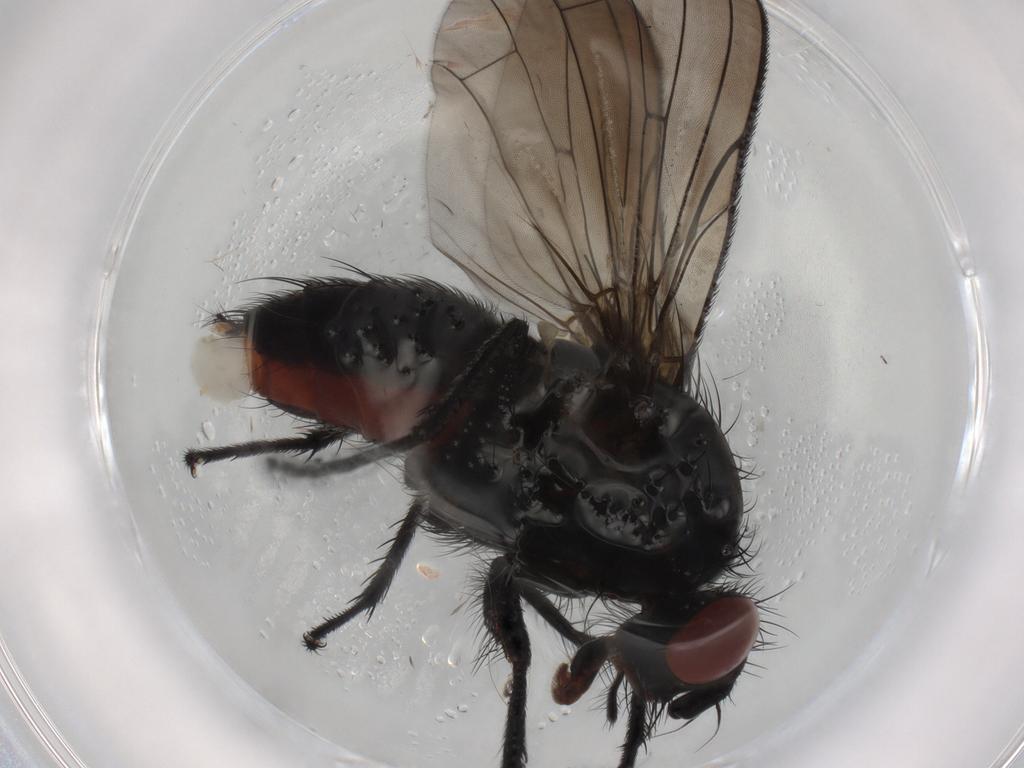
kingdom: Animalia
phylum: Arthropoda
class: Insecta
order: Diptera
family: Anthomyiidae
